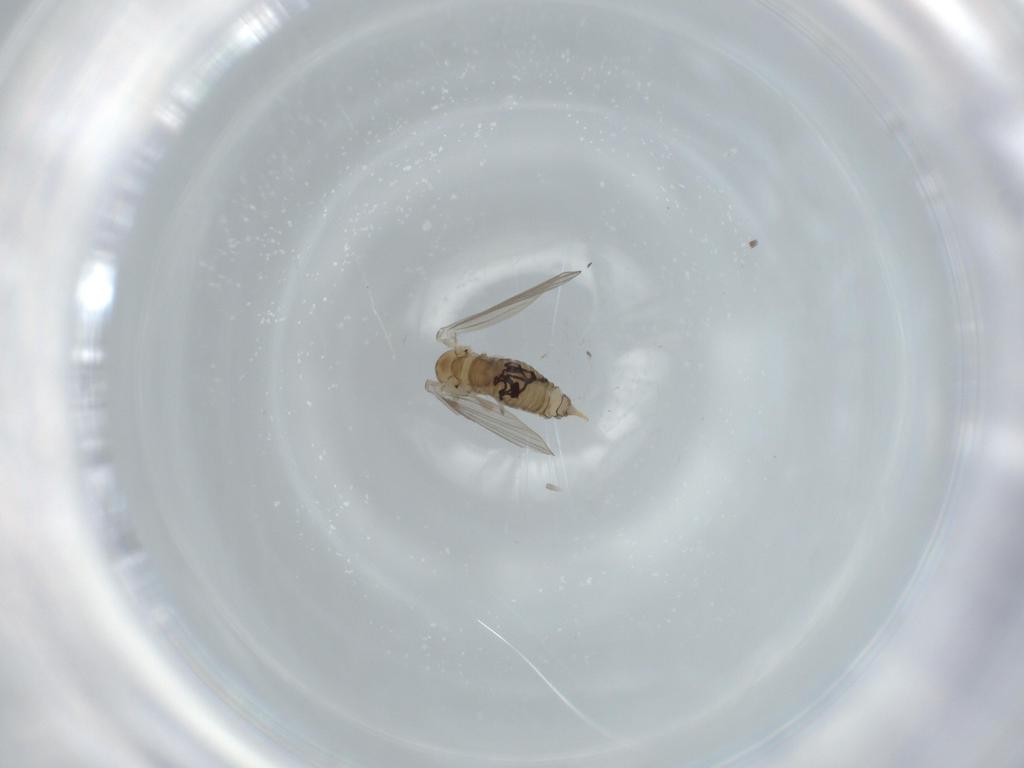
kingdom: Animalia
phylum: Arthropoda
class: Insecta
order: Diptera
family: Psychodidae
